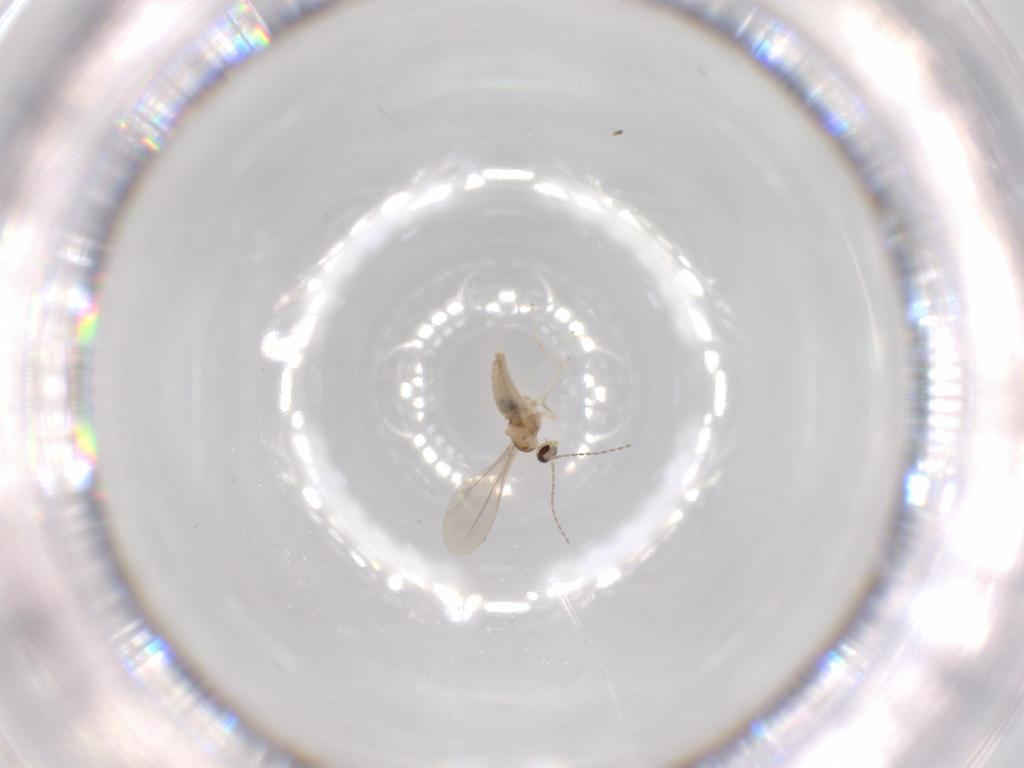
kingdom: Animalia
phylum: Arthropoda
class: Insecta
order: Diptera
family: Cecidomyiidae
